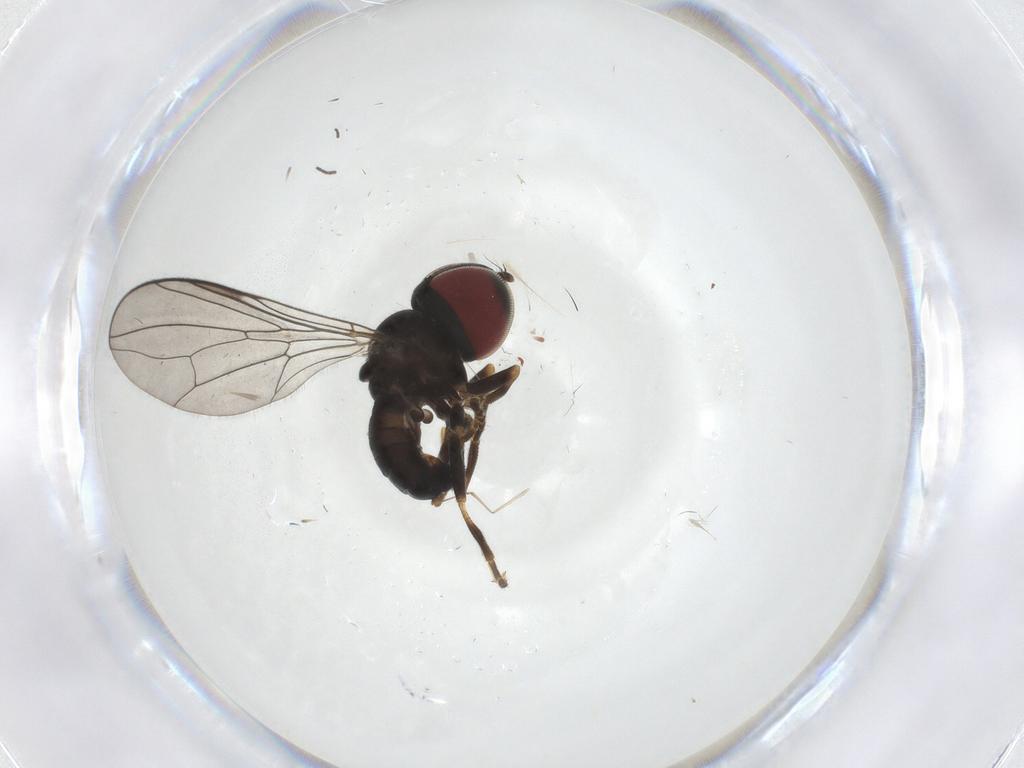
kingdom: Animalia
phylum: Arthropoda
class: Insecta
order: Diptera
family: Pipunculidae
